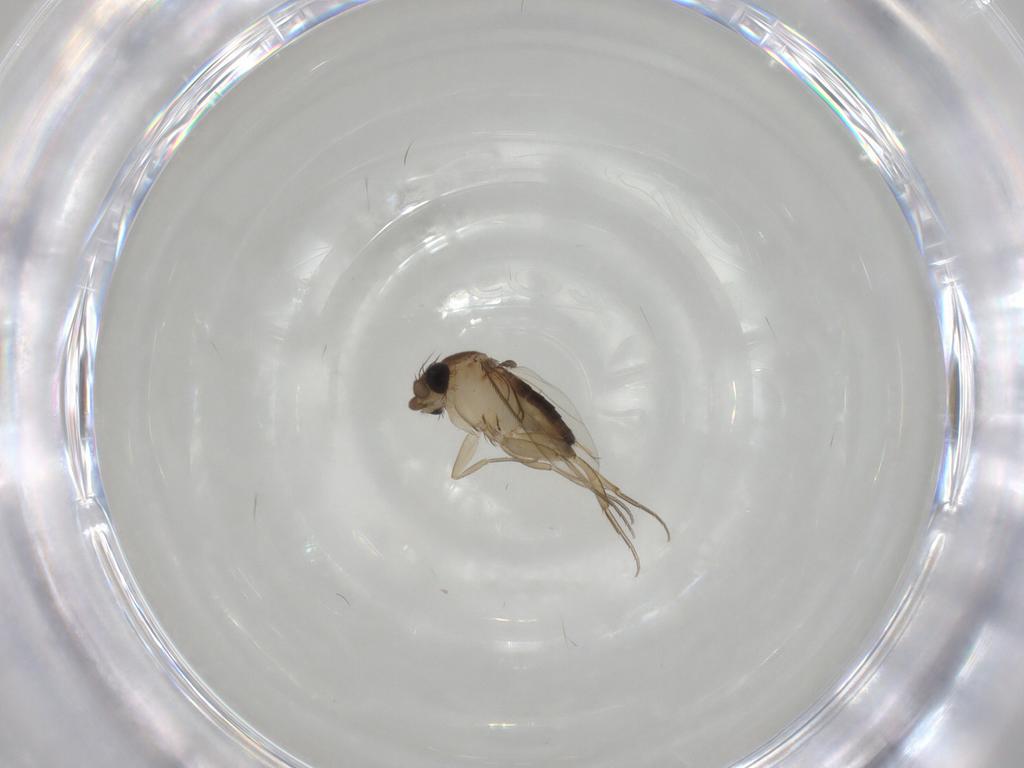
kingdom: Animalia
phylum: Arthropoda
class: Insecta
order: Diptera
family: Phoridae
